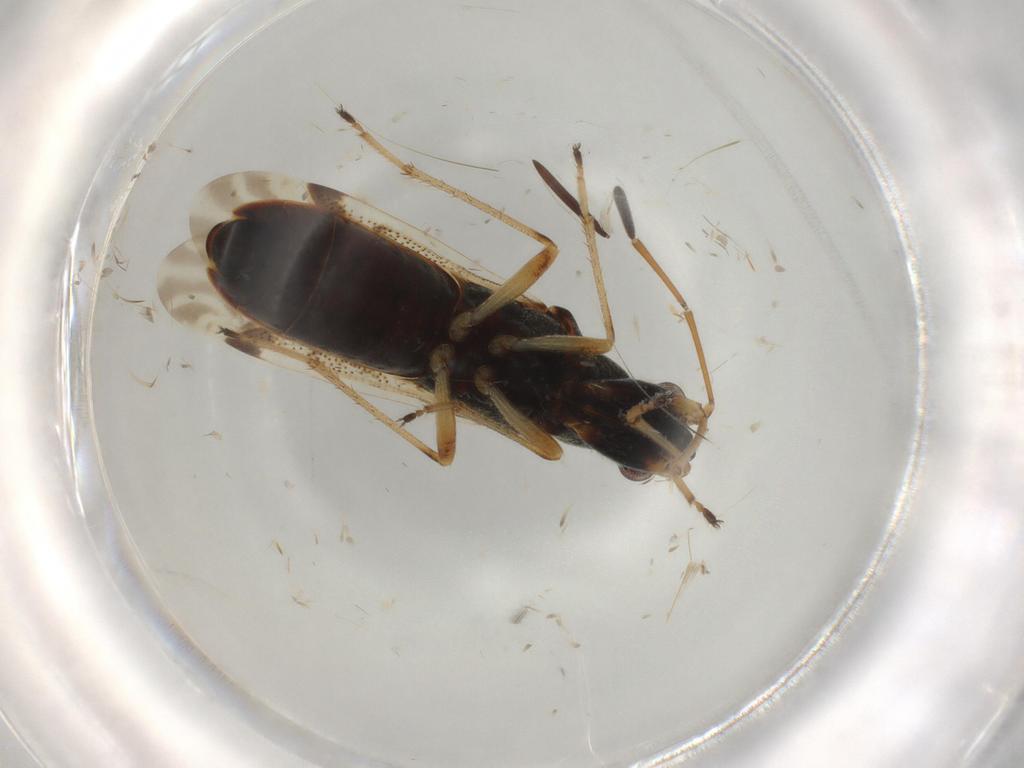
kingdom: Animalia
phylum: Arthropoda
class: Insecta
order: Hemiptera
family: Rhyparochromidae
